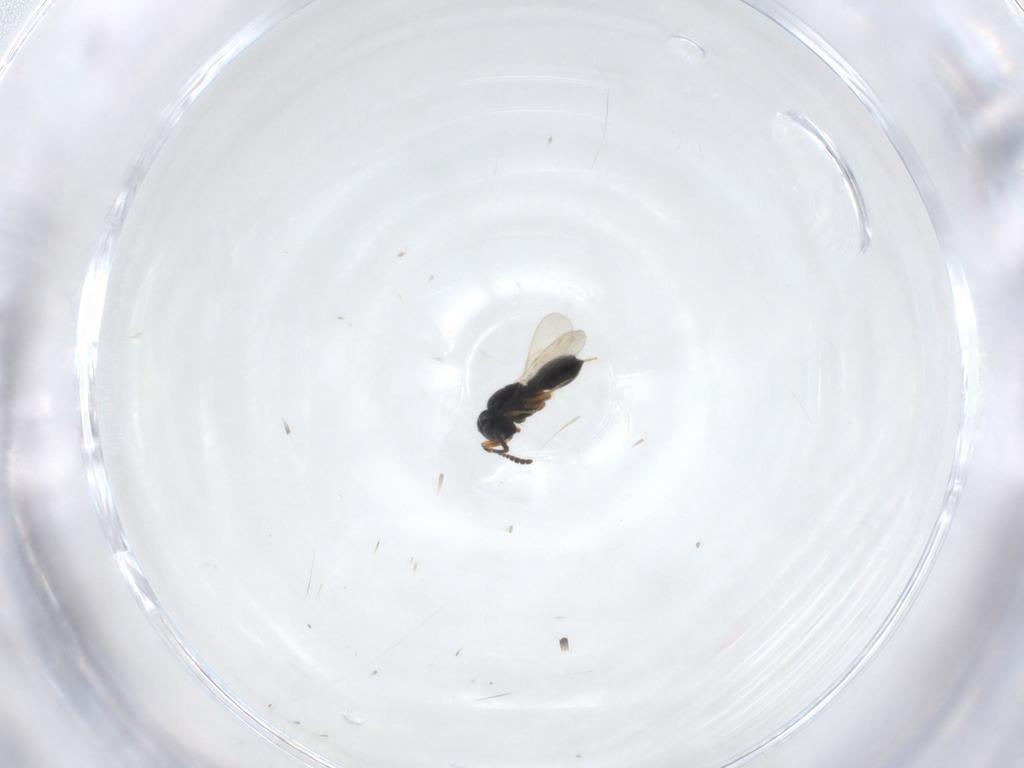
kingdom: Animalia
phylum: Arthropoda
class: Insecta
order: Hymenoptera
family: Scelionidae
